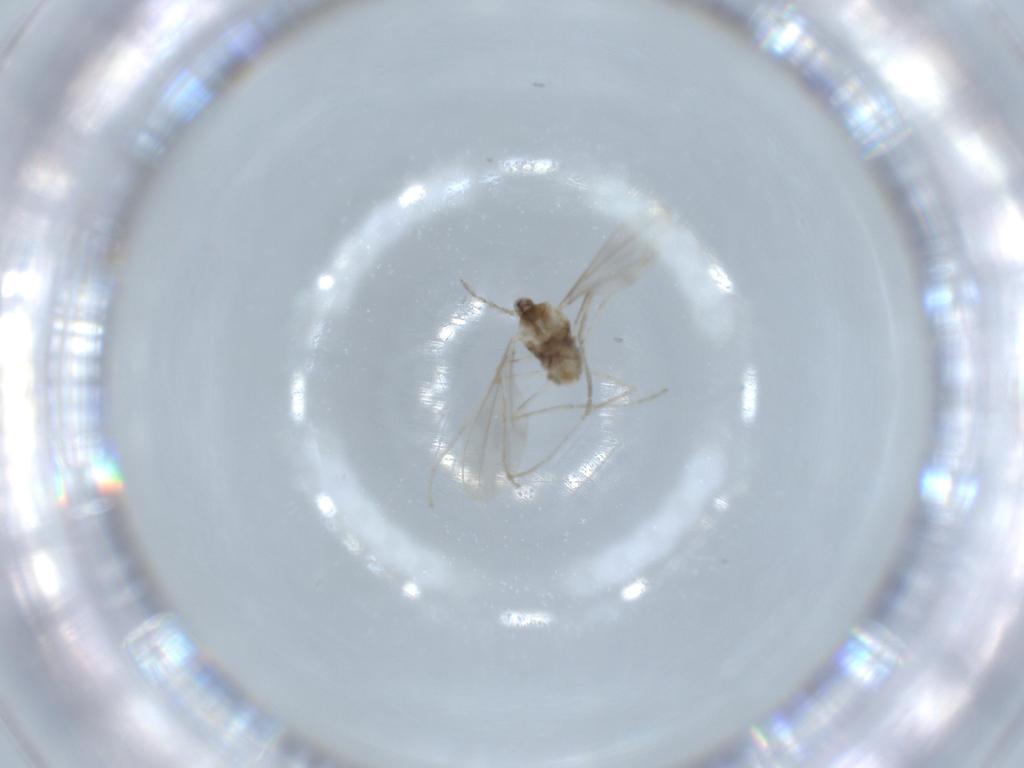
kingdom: Animalia
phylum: Arthropoda
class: Insecta
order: Diptera
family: Cecidomyiidae
